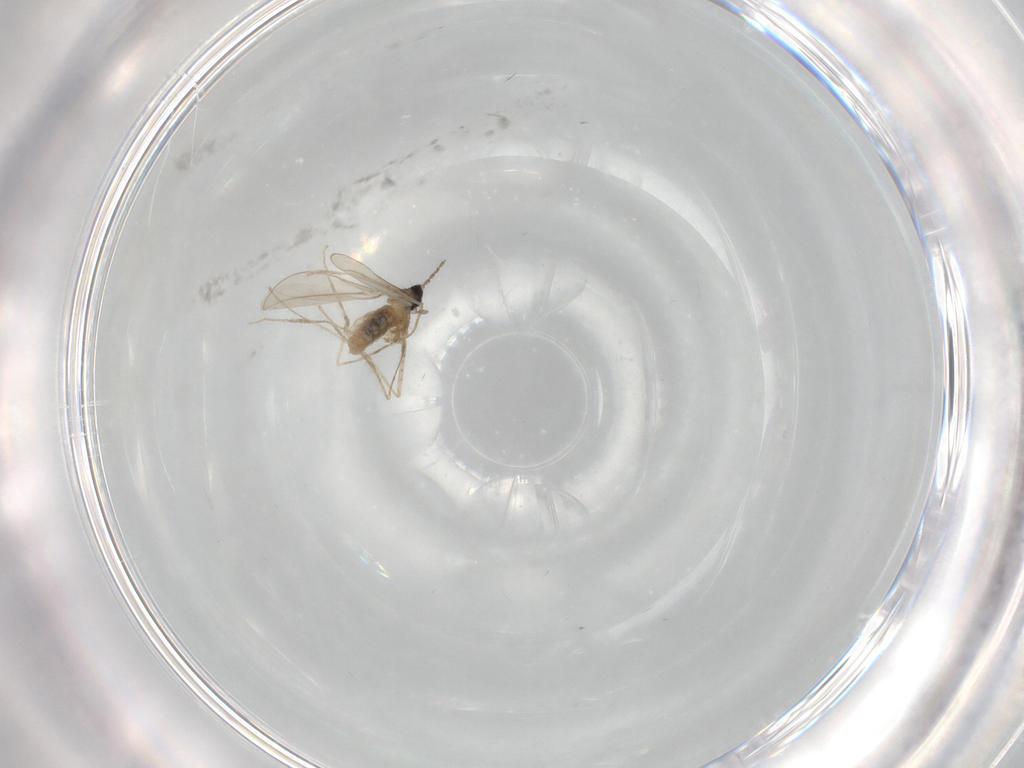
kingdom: Animalia
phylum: Arthropoda
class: Insecta
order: Diptera
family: Cecidomyiidae
